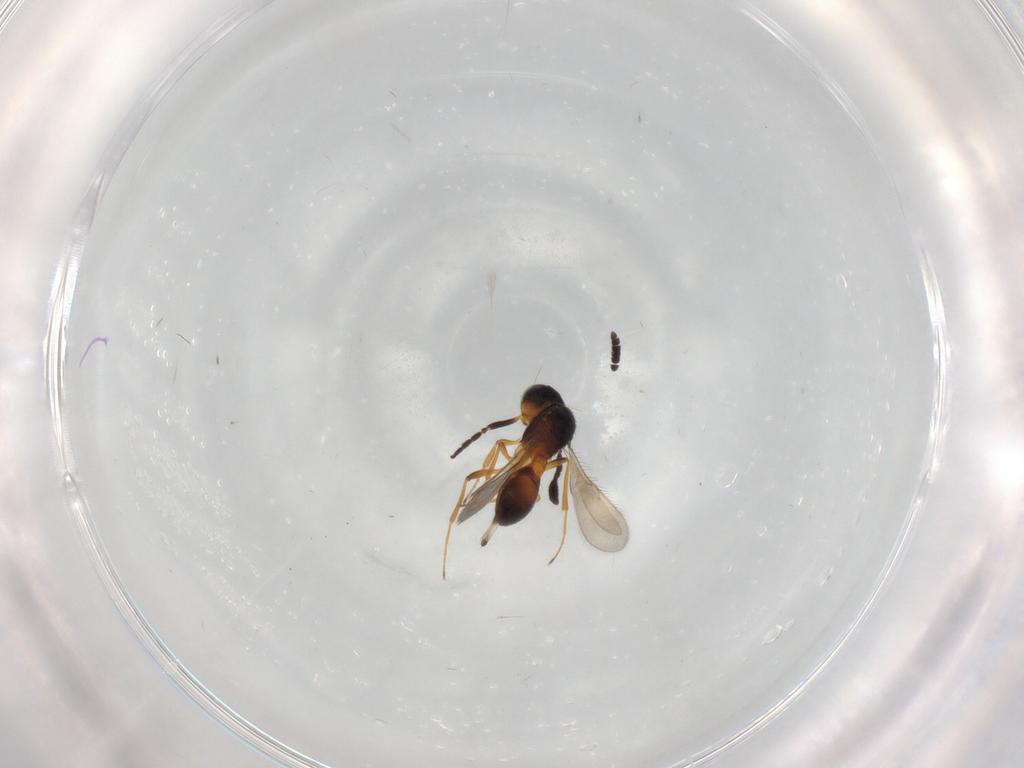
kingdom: Animalia
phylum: Arthropoda
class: Insecta
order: Hymenoptera
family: Scelionidae
